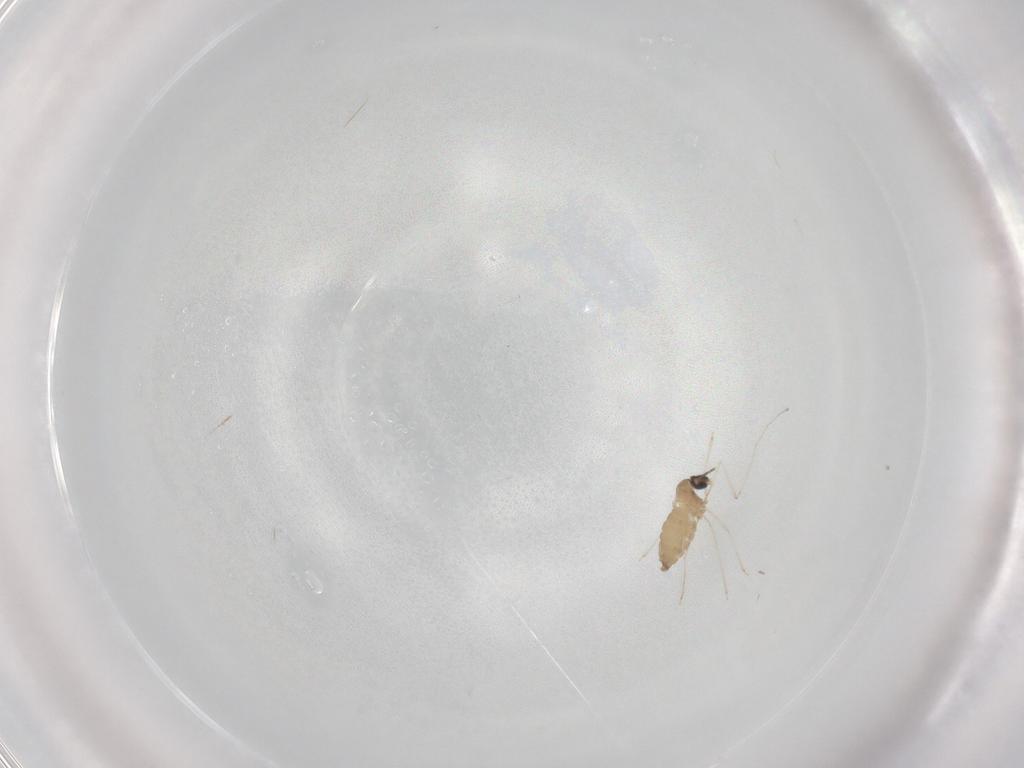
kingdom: Animalia
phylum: Arthropoda
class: Insecta
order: Diptera
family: Cecidomyiidae
